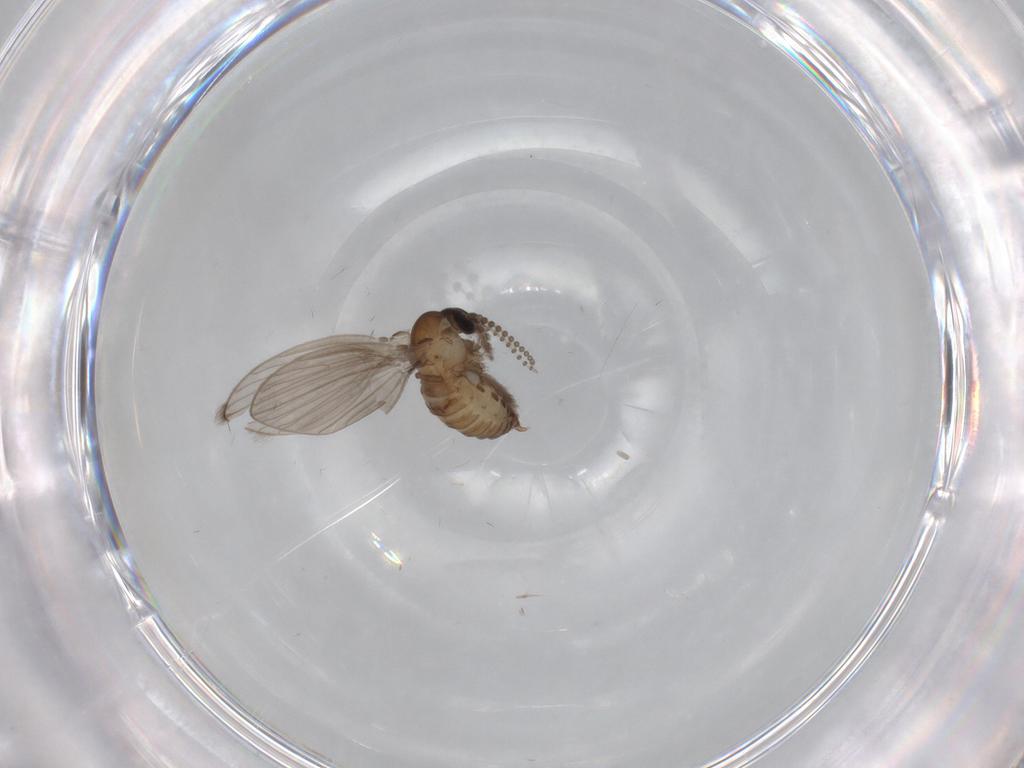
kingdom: Animalia
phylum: Arthropoda
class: Insecta
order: Diptera
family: Psychodidae
